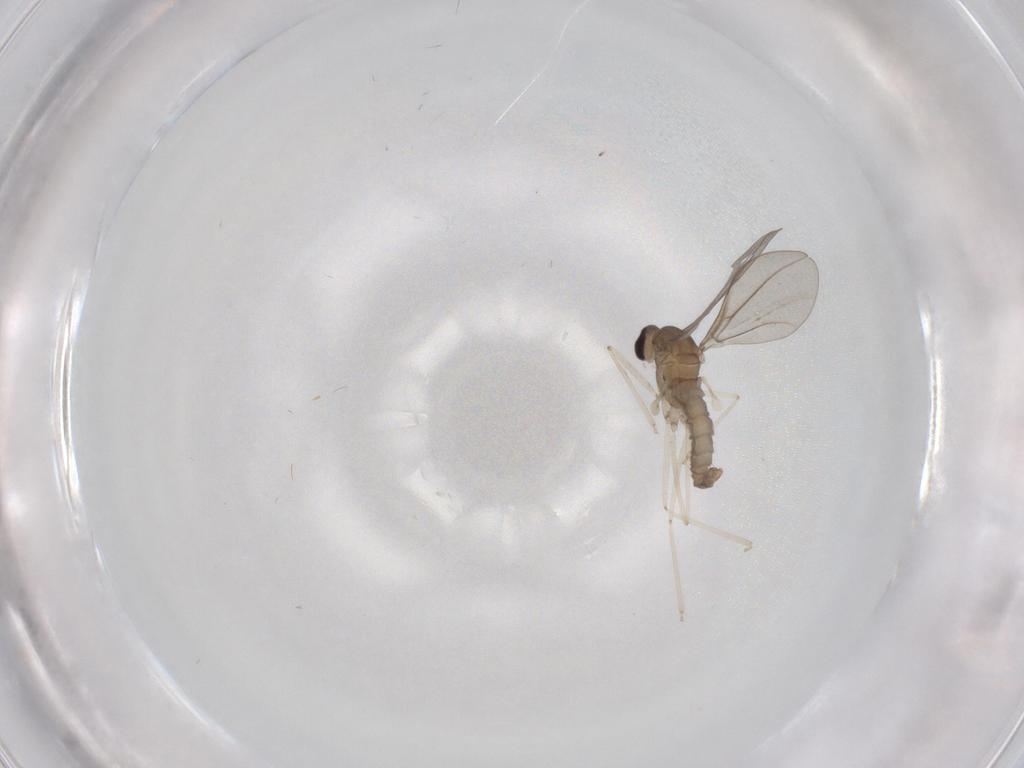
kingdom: Animalia
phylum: Arthropoda
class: Insecta
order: Diptera
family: Cecidomyiidae
